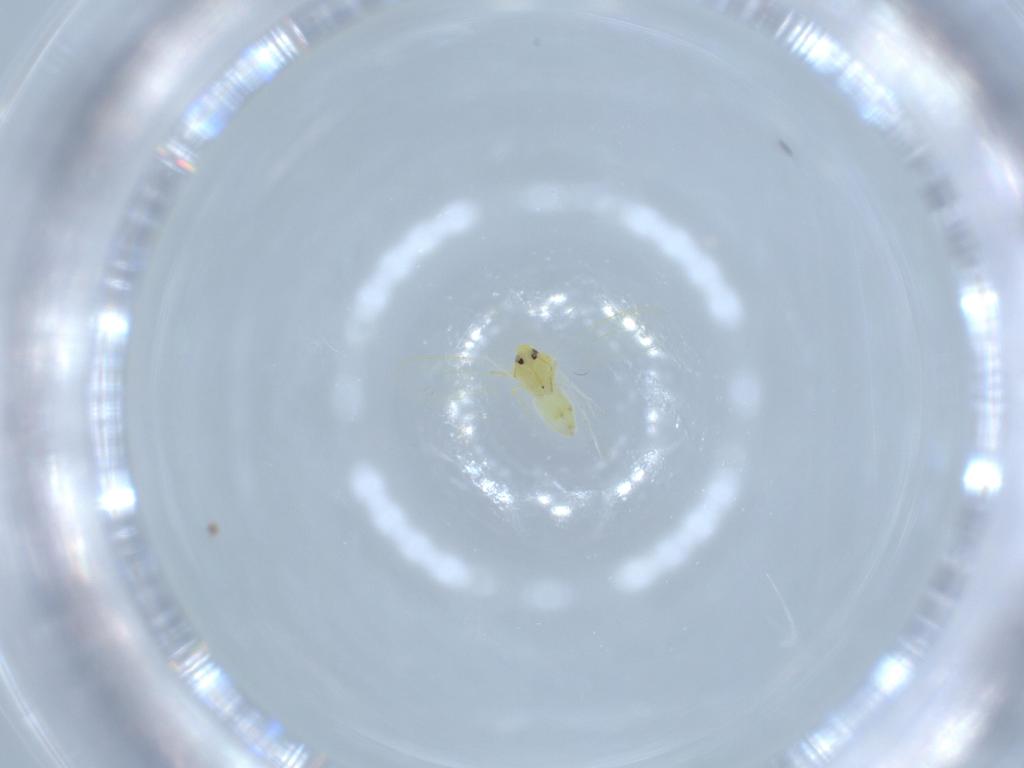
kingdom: Animalia
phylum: Arthropoda
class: Insecta
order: Hemiptera
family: Aleyrodidae
